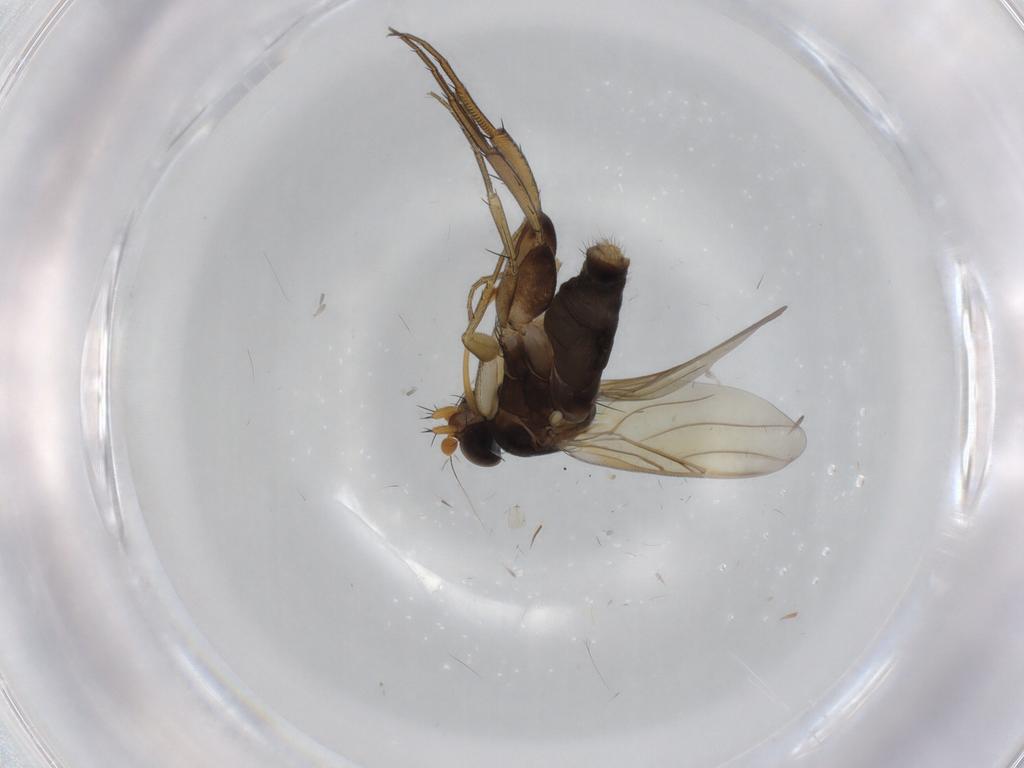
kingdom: Animalia
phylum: Arthropoda
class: Insecta
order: Diptera
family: Phoridae
